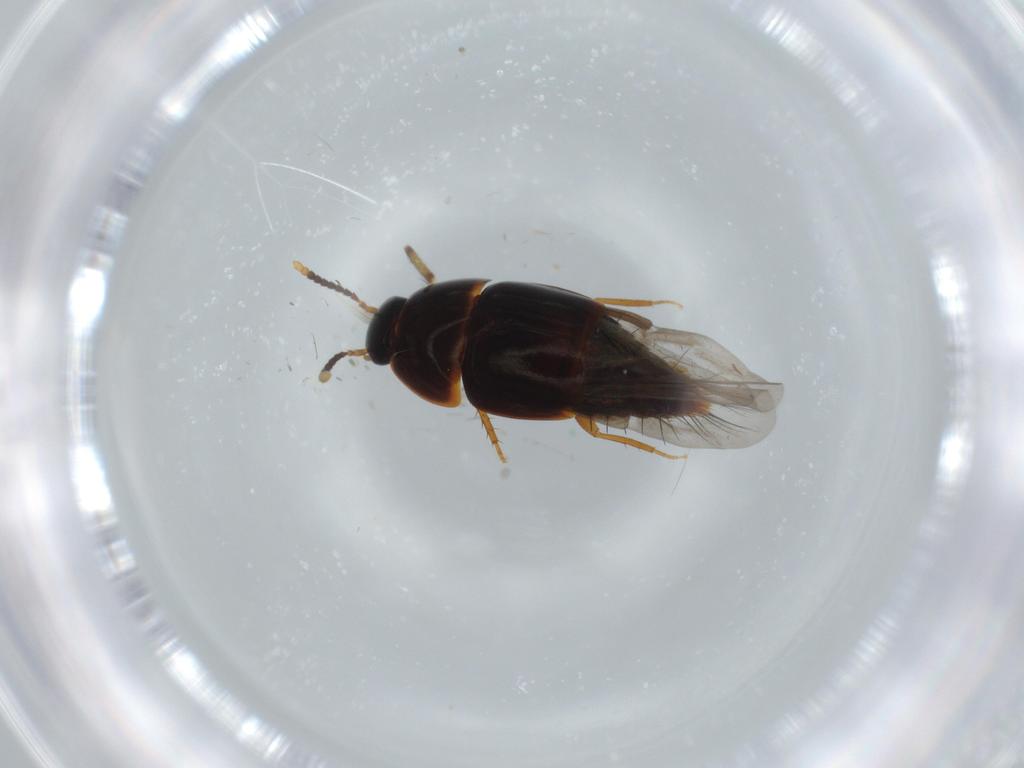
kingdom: Animalia
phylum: Arthropoda
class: Insecta
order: Coleoptera
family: Staphylinidae
